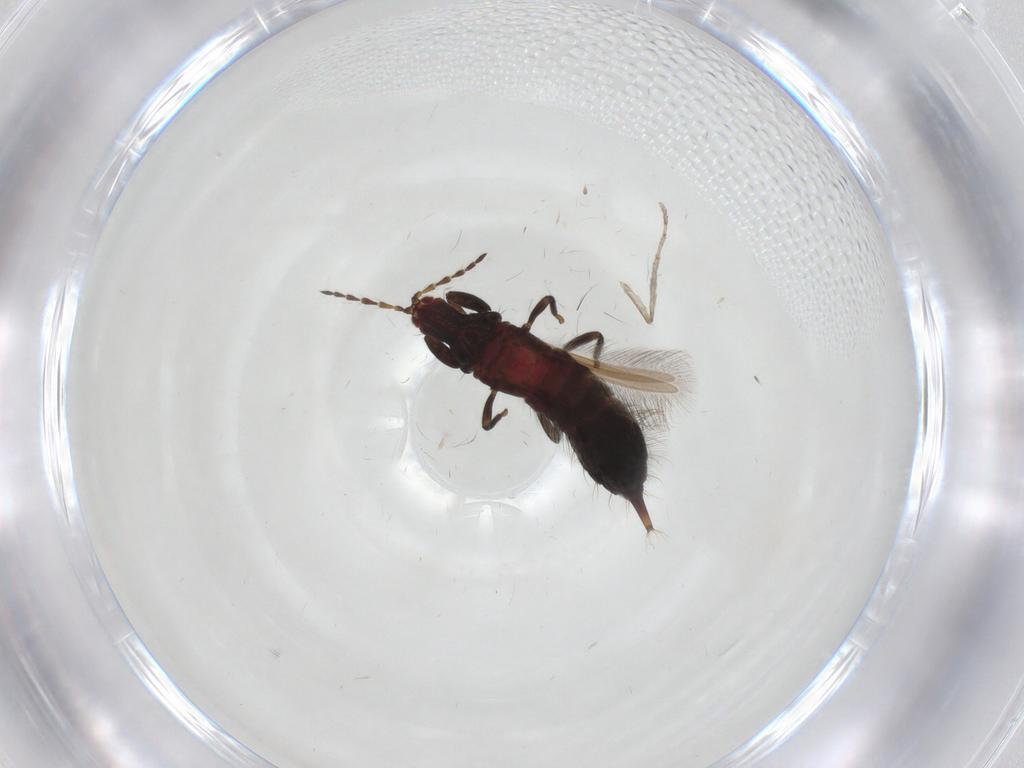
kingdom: Animalia
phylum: Arthropoda
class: Insecta
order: Thysanoptera
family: Phlaeothripidae
